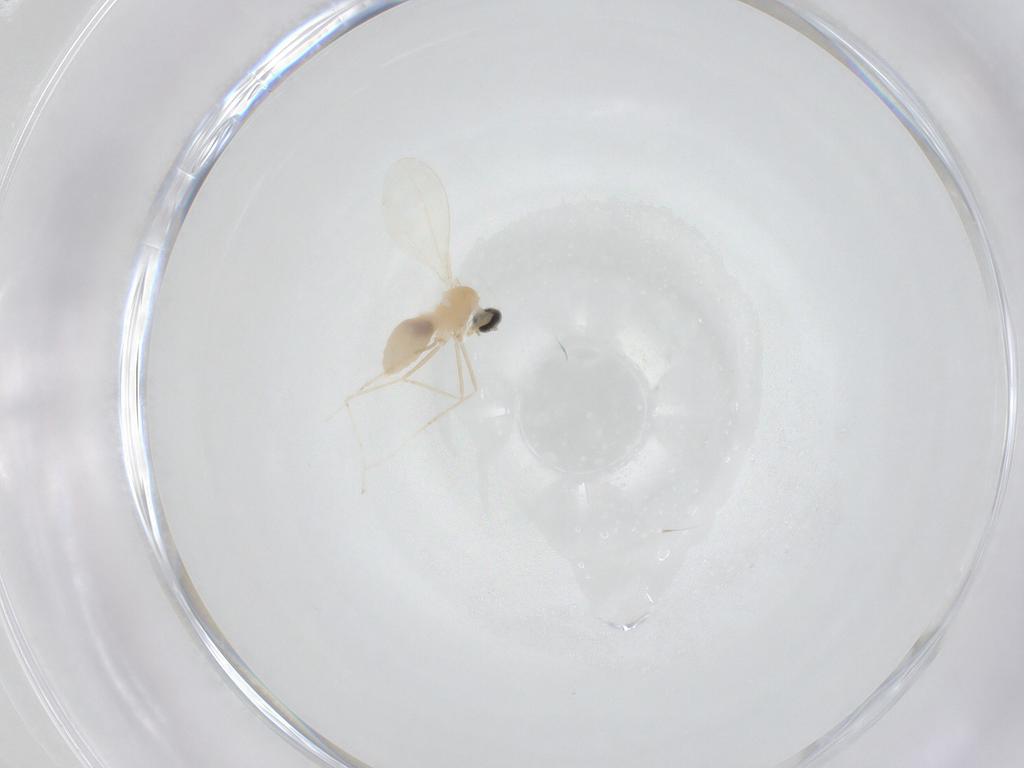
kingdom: Animalia
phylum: Arthropoda
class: Insecta
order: Diptera
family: Cecidomyiidae
